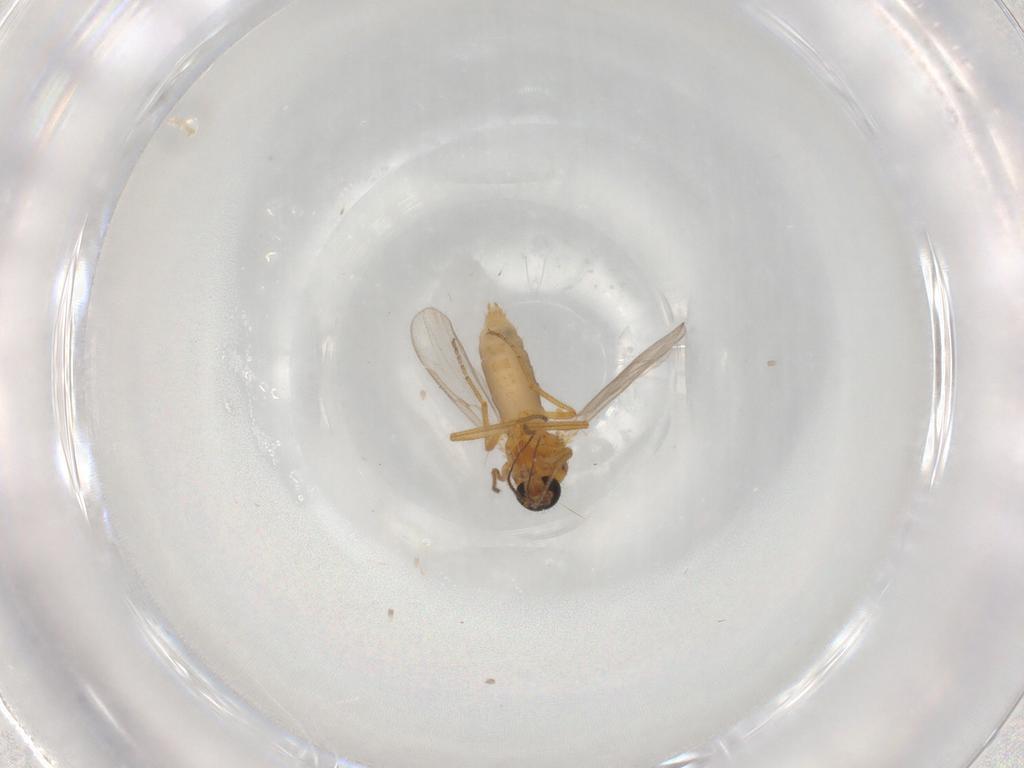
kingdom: Animalia
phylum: Arthropoda
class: Insecta
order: Diptera
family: Ceratopogonidae
